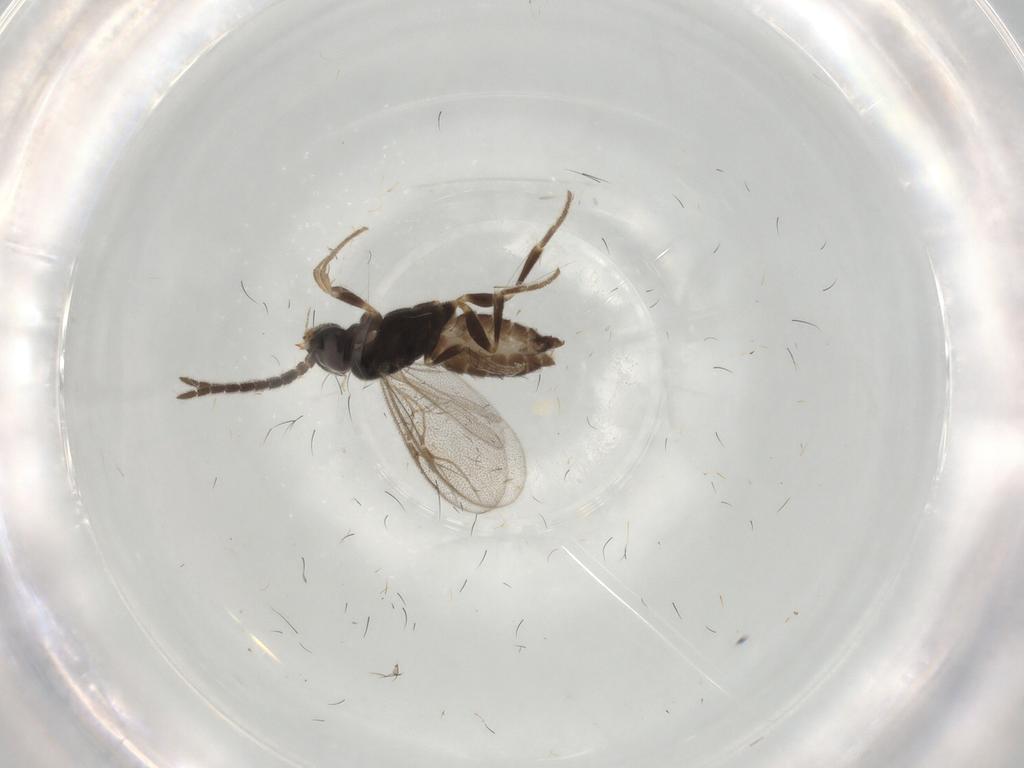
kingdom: Animalia
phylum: Arthropoda
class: Insecta
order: Hymenoptera
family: Dryinidae
